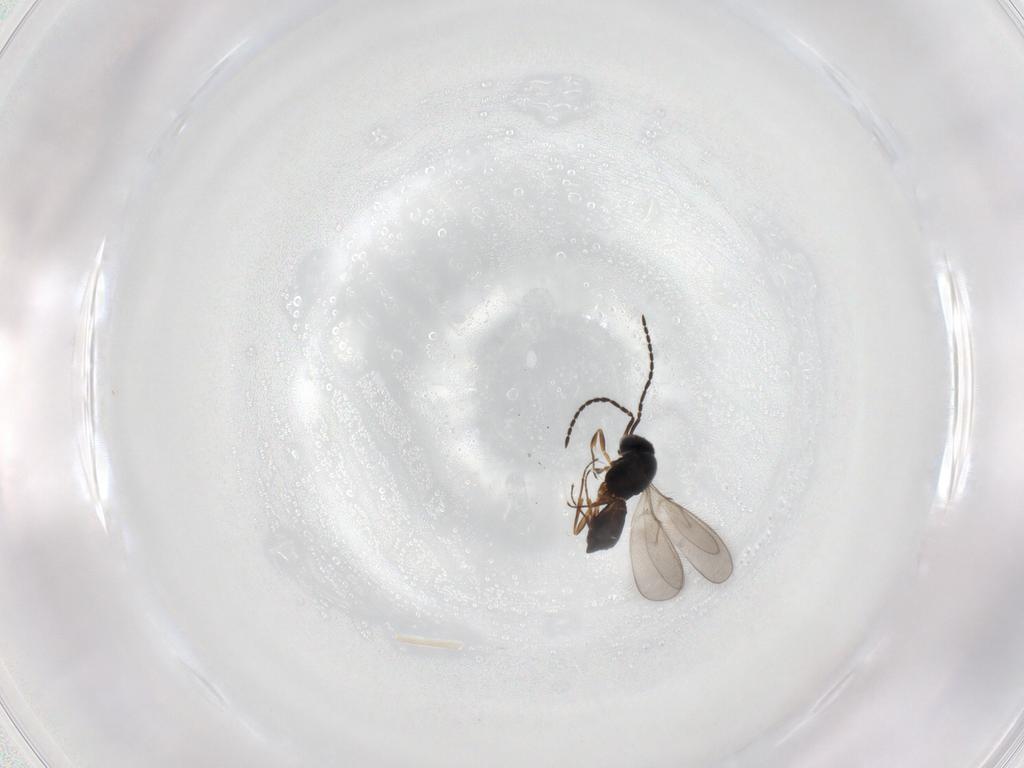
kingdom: Animalia
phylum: Arthropoda
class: Insecta
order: Hymenoptera
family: Scelionidae
